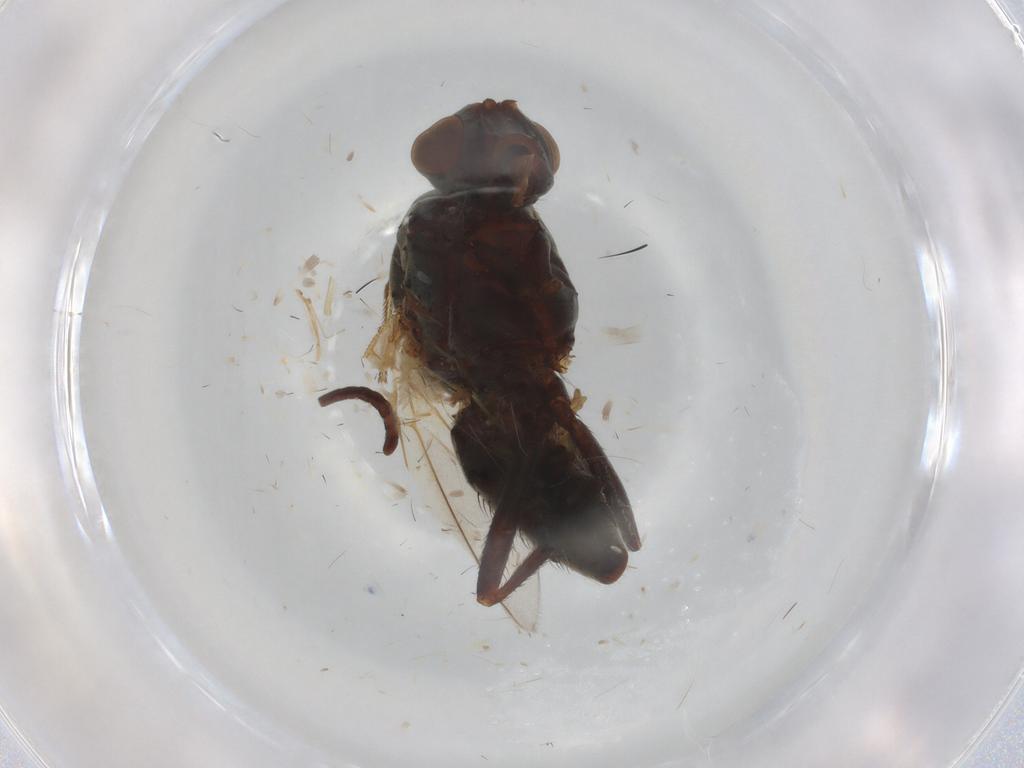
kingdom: Animalia
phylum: Arthropoda
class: Insecta
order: Diptera
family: Anthomyiidae
